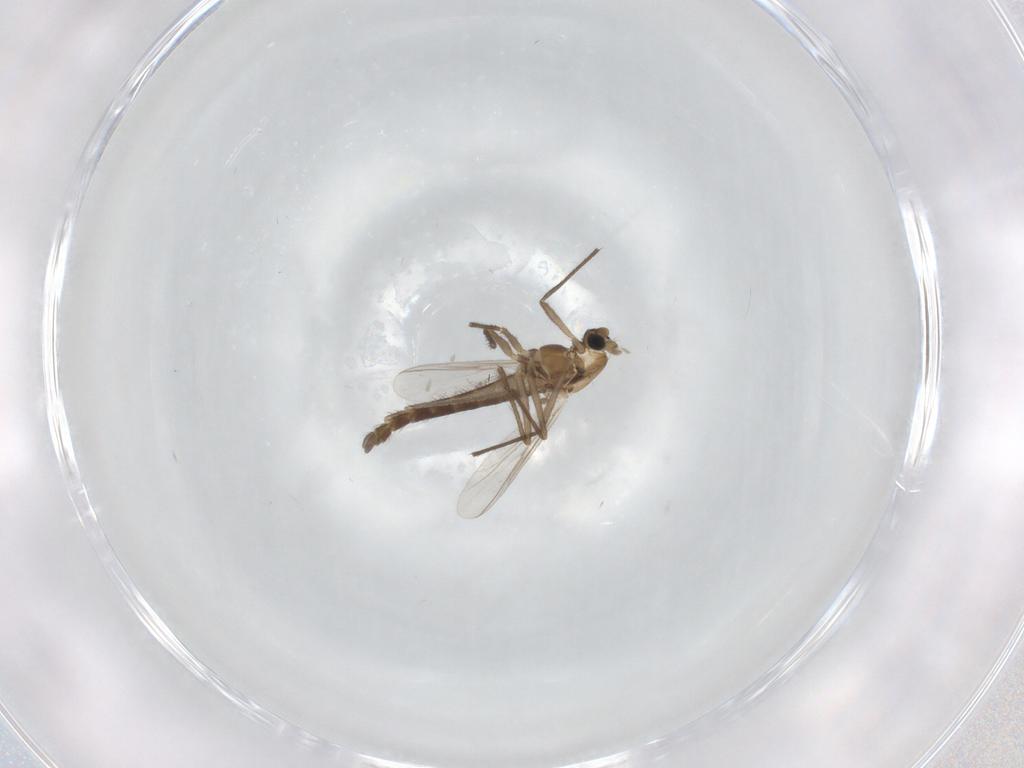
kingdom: Animalia
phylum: Arthropoda
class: Insecta
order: Diptera
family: Chironomidae
